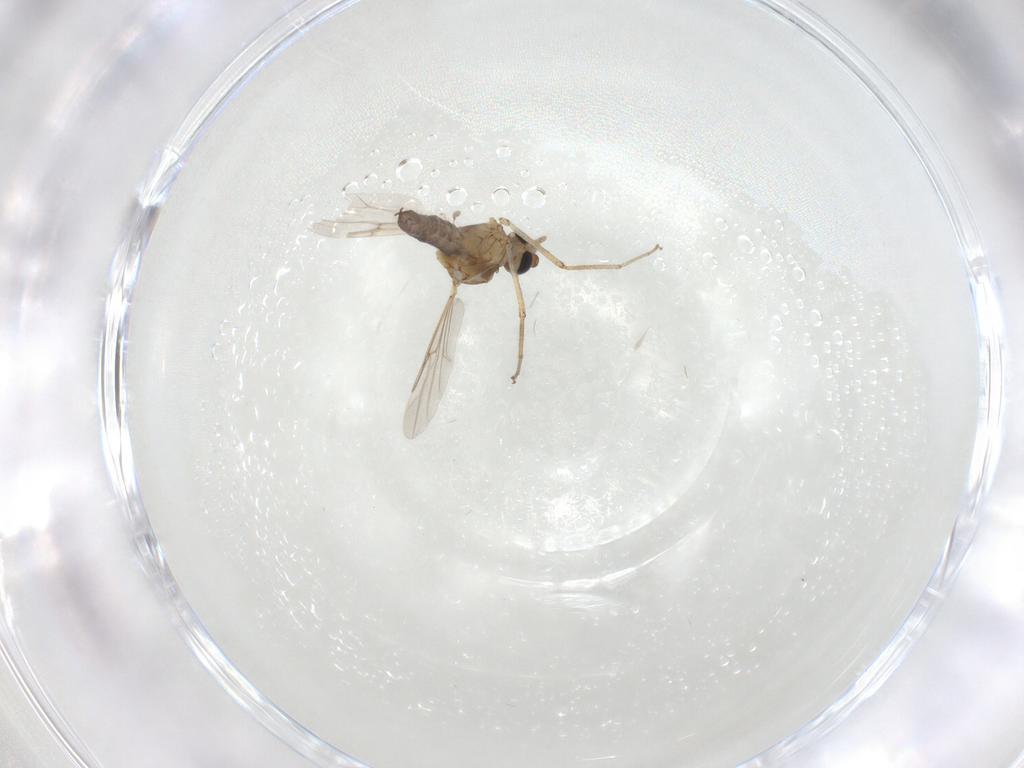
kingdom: Animalia
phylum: Arthropoda
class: Insecta
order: Diptera
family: Ceratopogonidae
